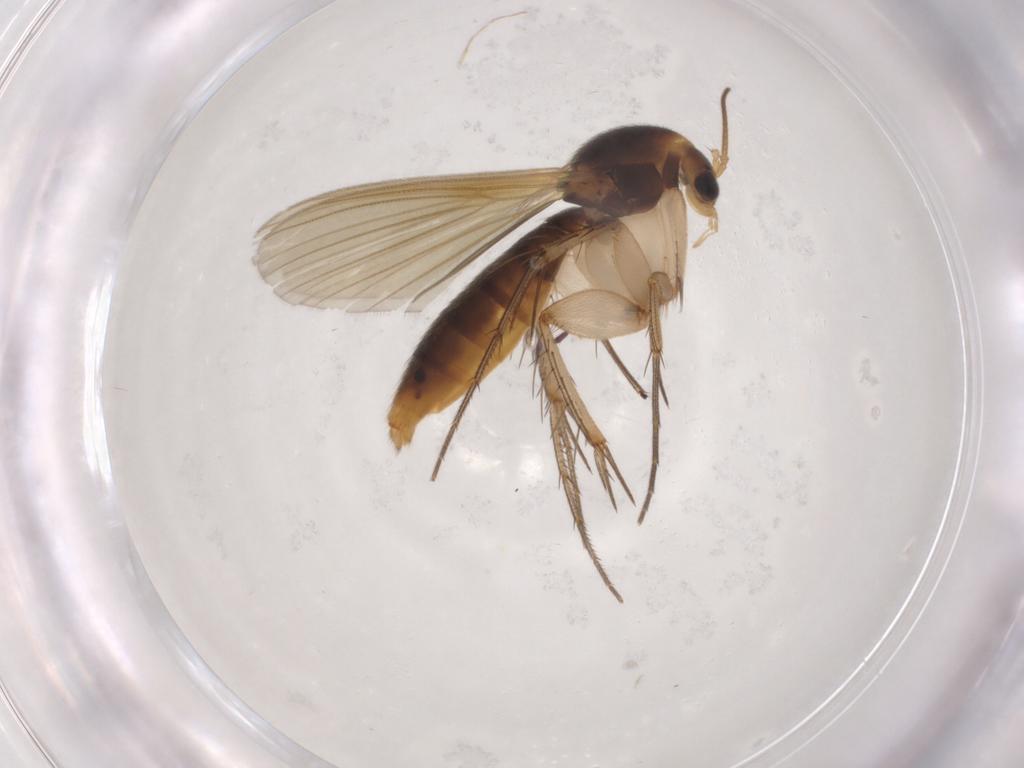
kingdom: Animalia
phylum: Arthropoda
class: Insecta
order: Diptera
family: Mycetophilidae
